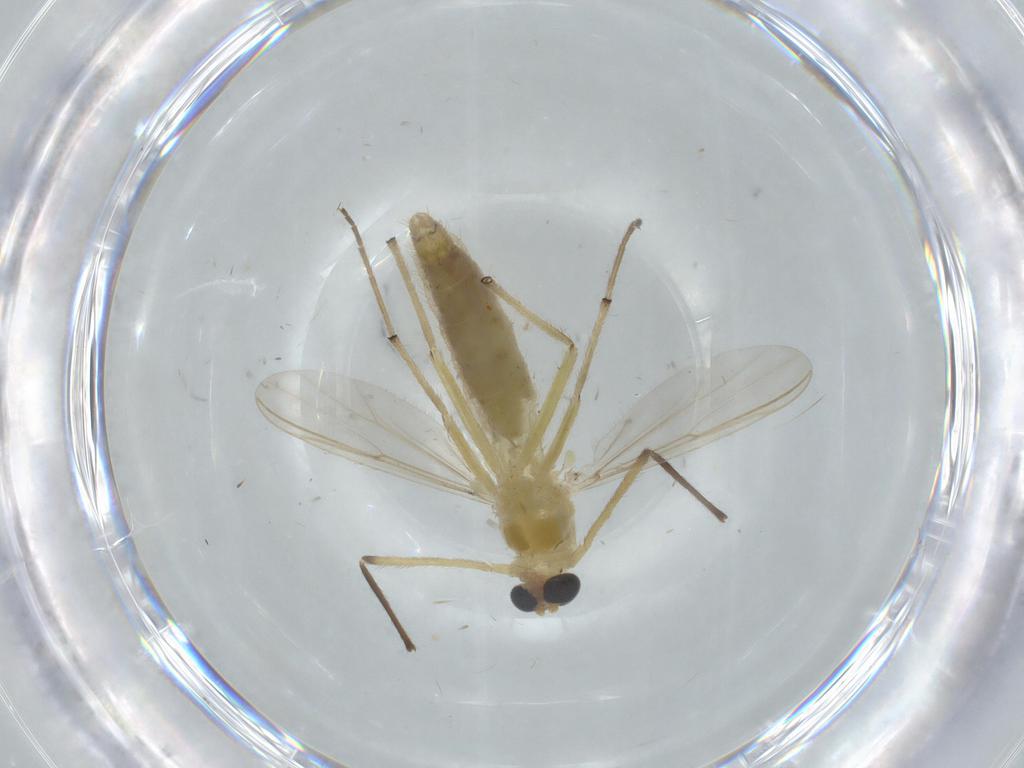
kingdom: Animalia
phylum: Arthropoda
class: Insecta
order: Diptera
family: Chironomidae
